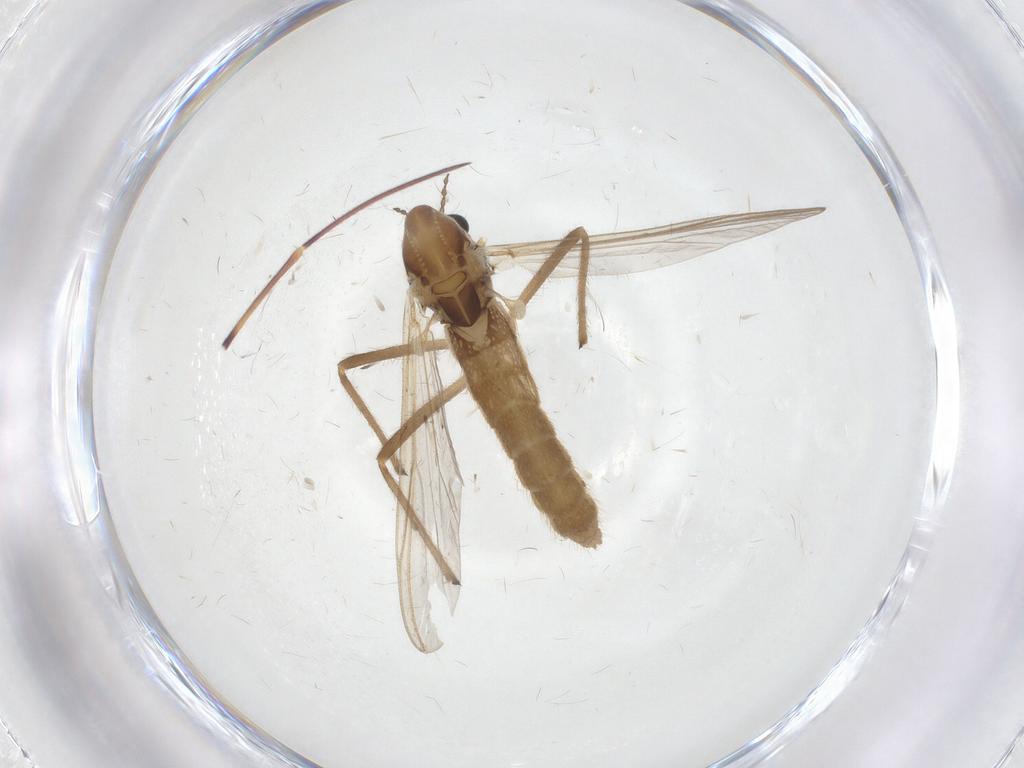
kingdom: Animalia
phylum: Arthropoda
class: Insecta
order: Diptera
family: Chironomidae
